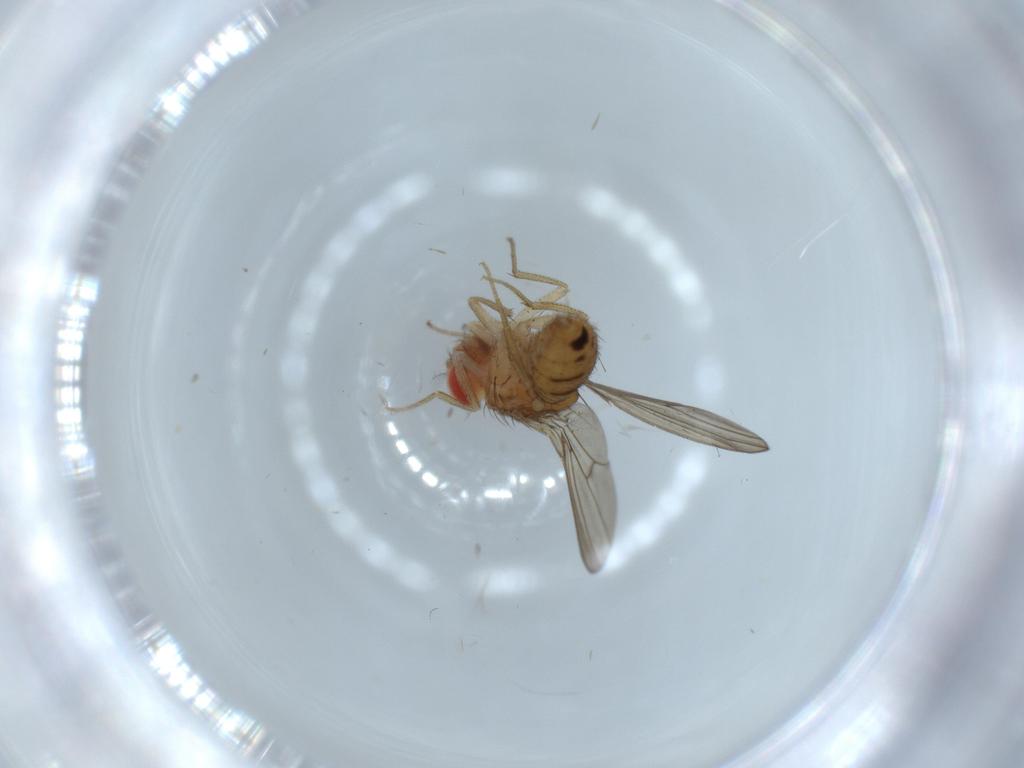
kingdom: Animalia
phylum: Arthropoda
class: Insecta
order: Diptera
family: Drosophilidae
